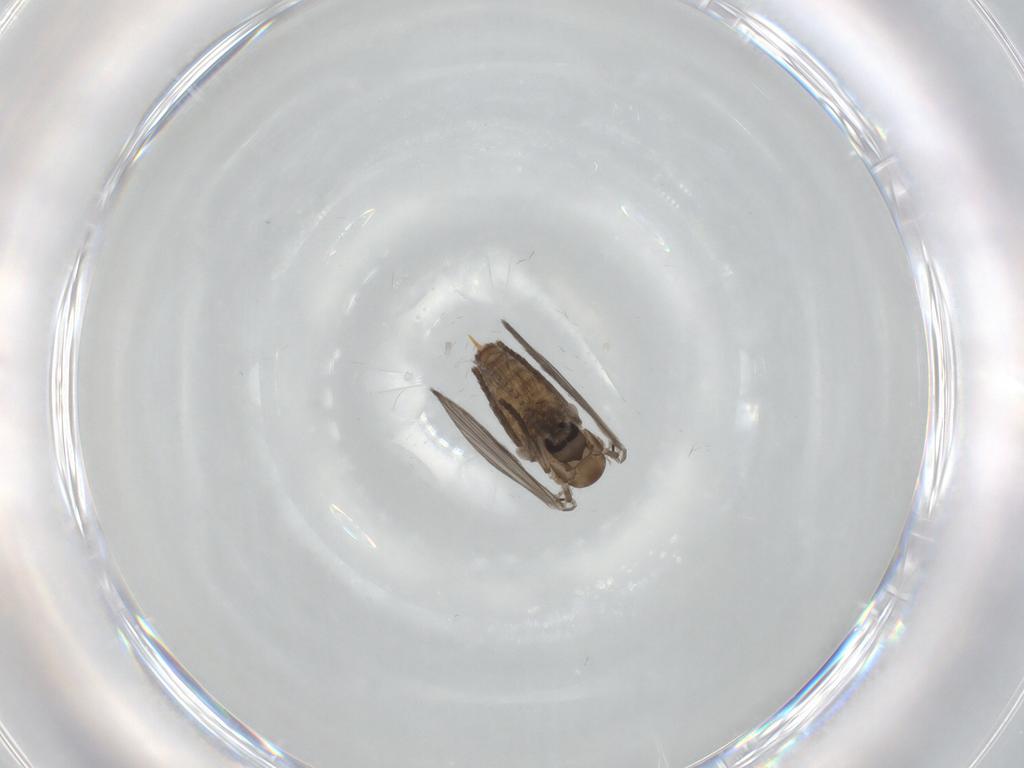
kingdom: Animalia
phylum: Arthropoda
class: Insecta
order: Diptera
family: Psychodidae
